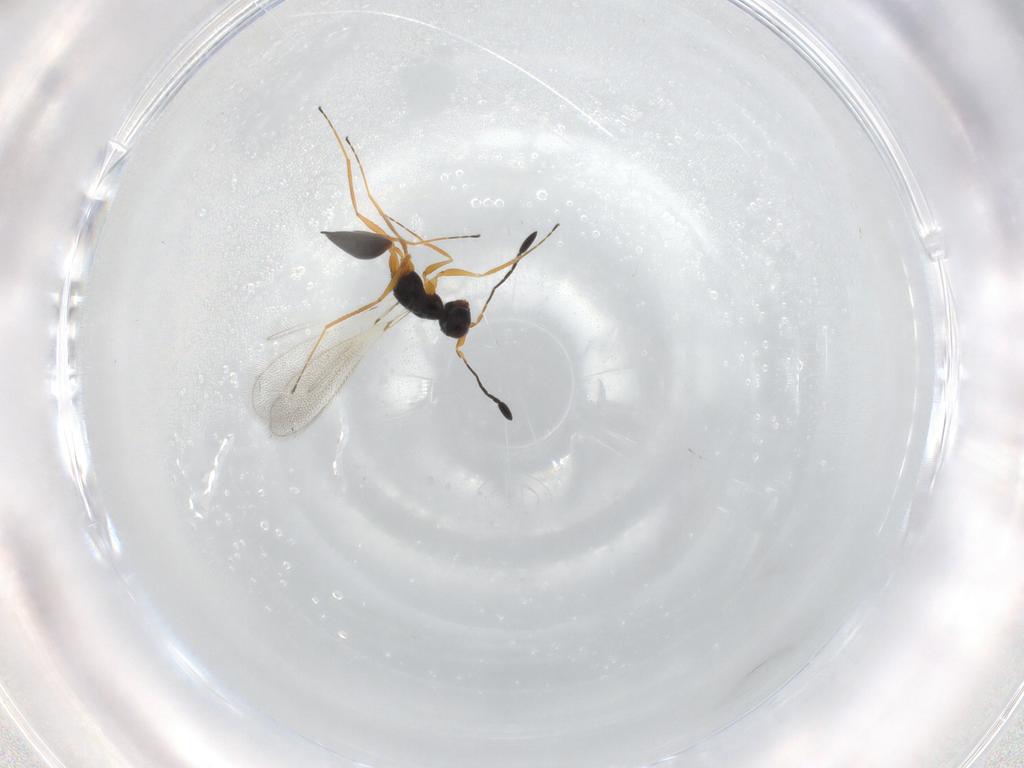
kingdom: Animalia
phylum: Arthropoda
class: Insecta
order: Hymenoptera
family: Mymaridae
